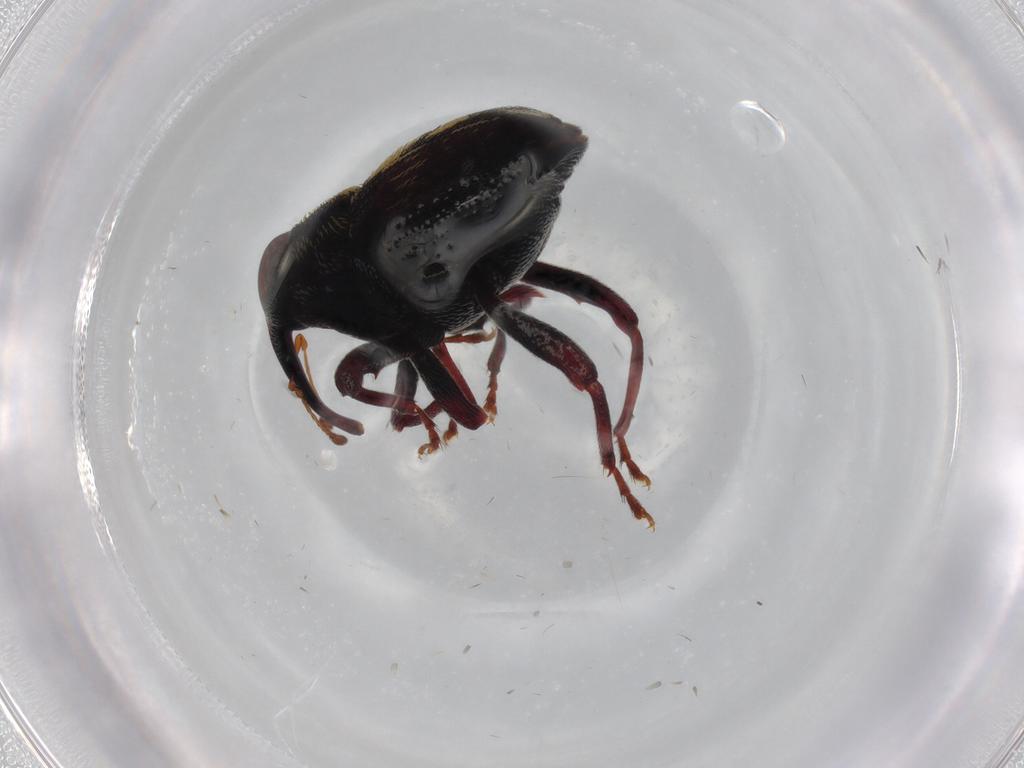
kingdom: Animalia
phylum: Arthropoda
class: Insecta
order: Coleoptera
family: Curculionidae
